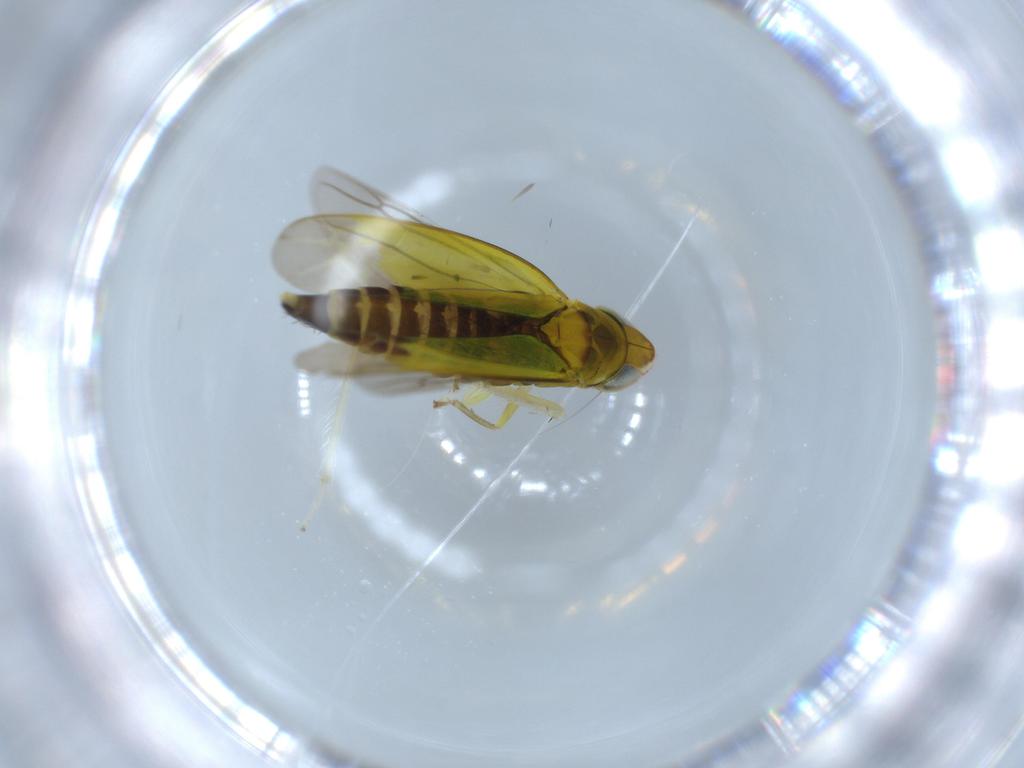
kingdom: Animalia
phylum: Arthropoda
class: Insecta
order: Hemiptera
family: Cicadellidae
